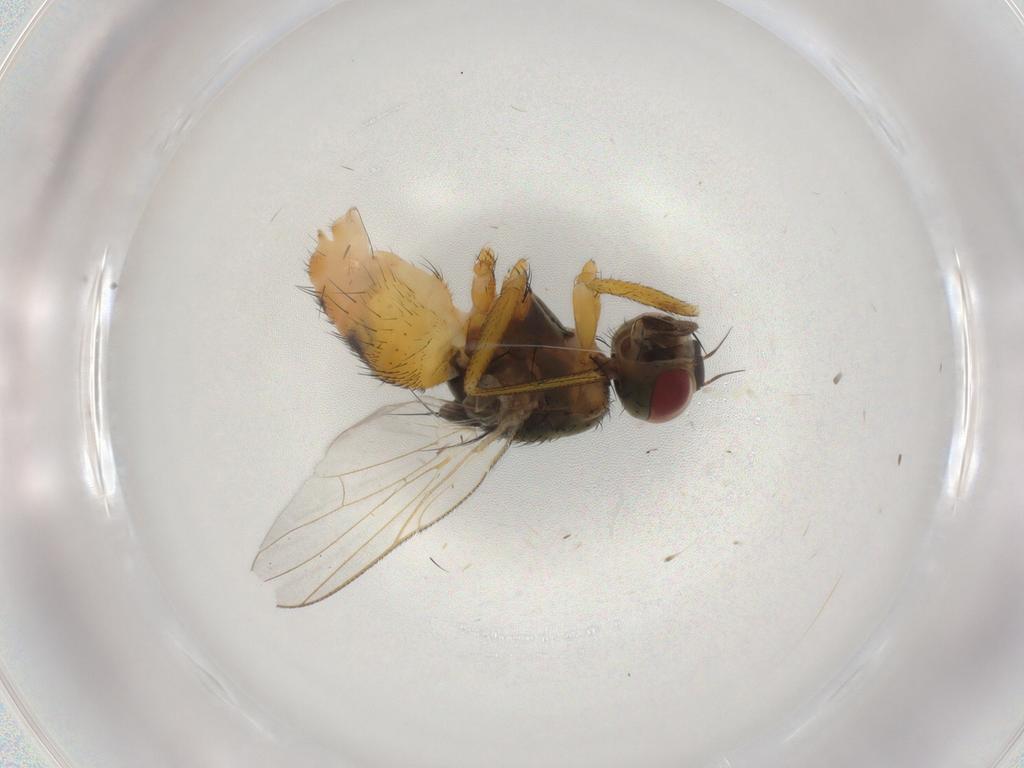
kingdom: Animalia
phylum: Arthropoda
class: Insecta
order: Diptera
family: Muscidae
